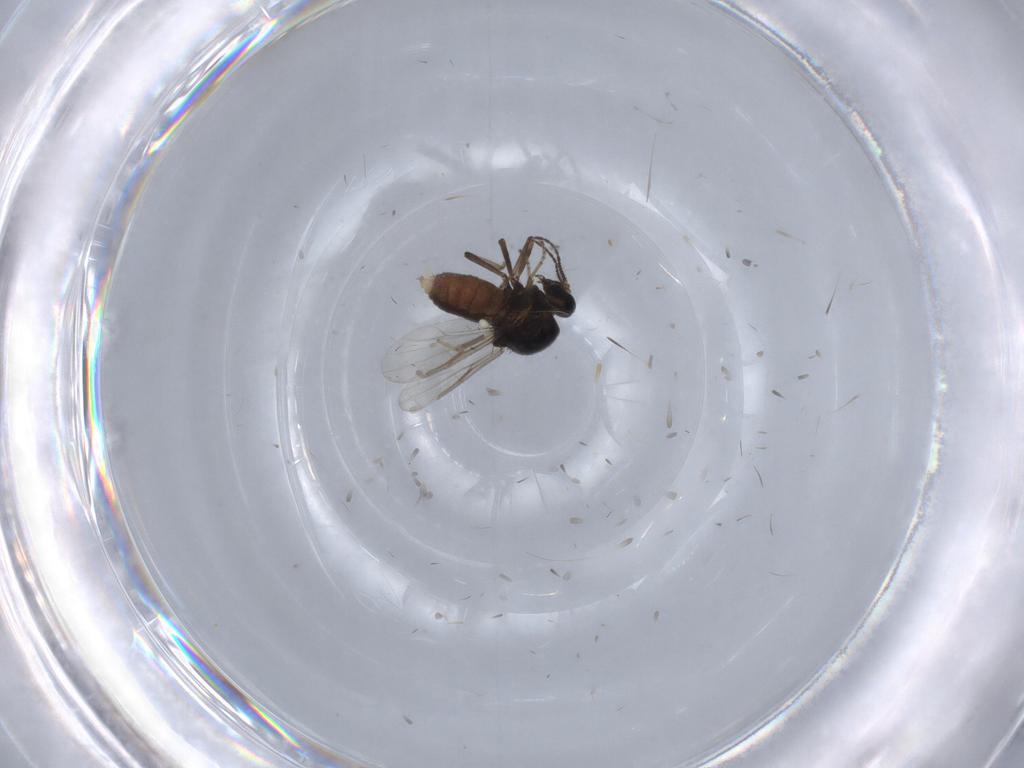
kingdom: Animalia
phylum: Arthropoda
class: Insecta
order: Diptera
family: Ceratopogonidae
